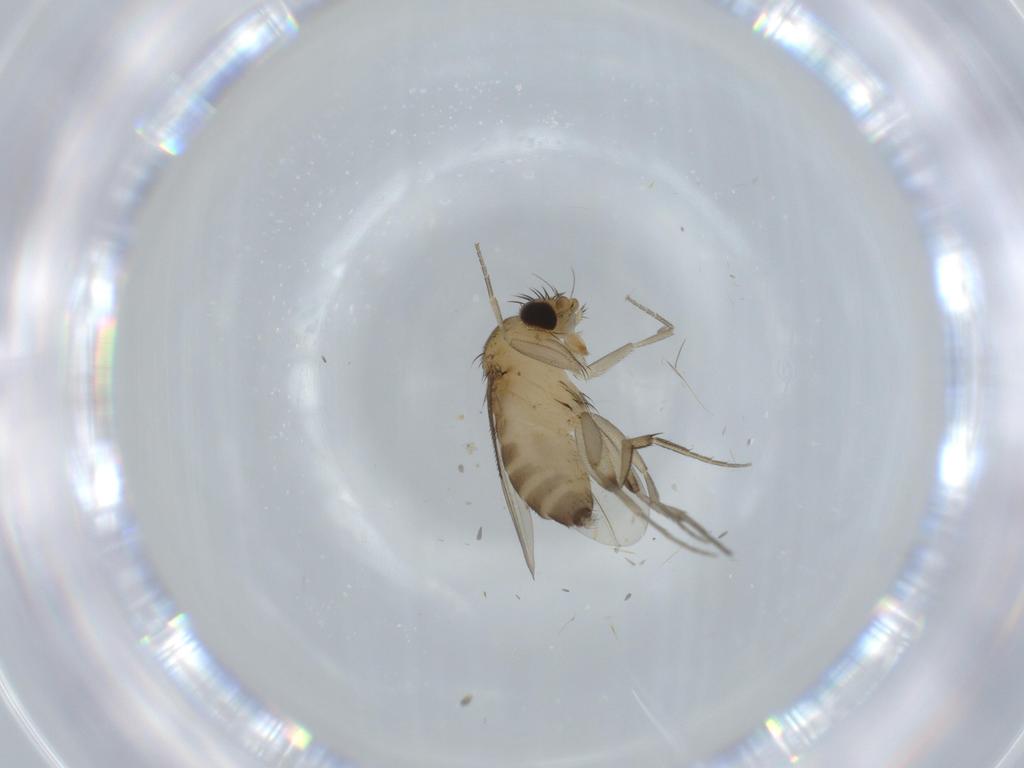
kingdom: Animalia
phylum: Arthropoda
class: Insecta
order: Diptera
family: Phoridae
